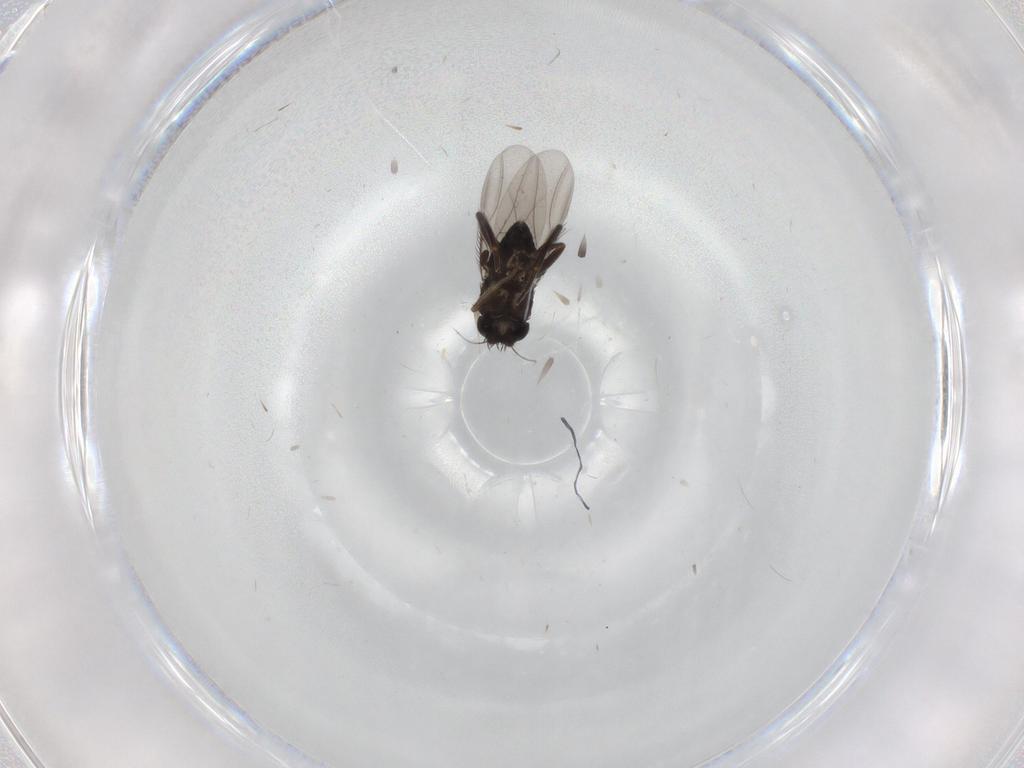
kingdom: Animalia
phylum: Arthropoda
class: Insecta
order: Diptera
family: Phoridae
